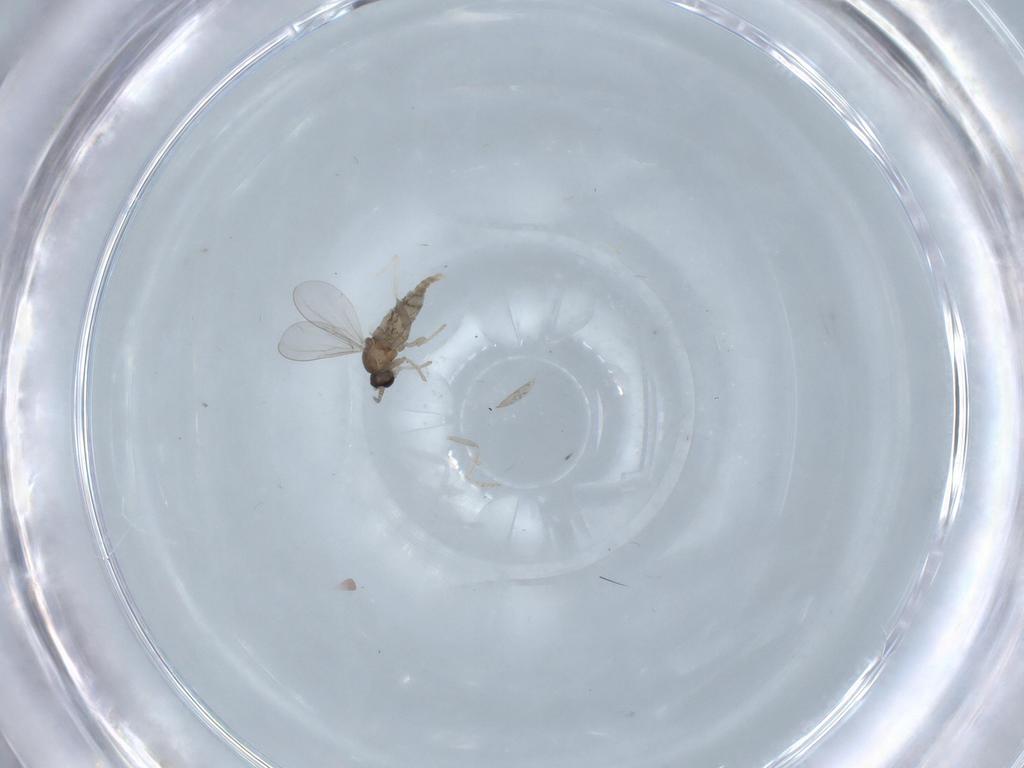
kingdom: Animalia
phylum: Arthropoda
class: Insecta
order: Diptera
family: Cecidomyiidae
